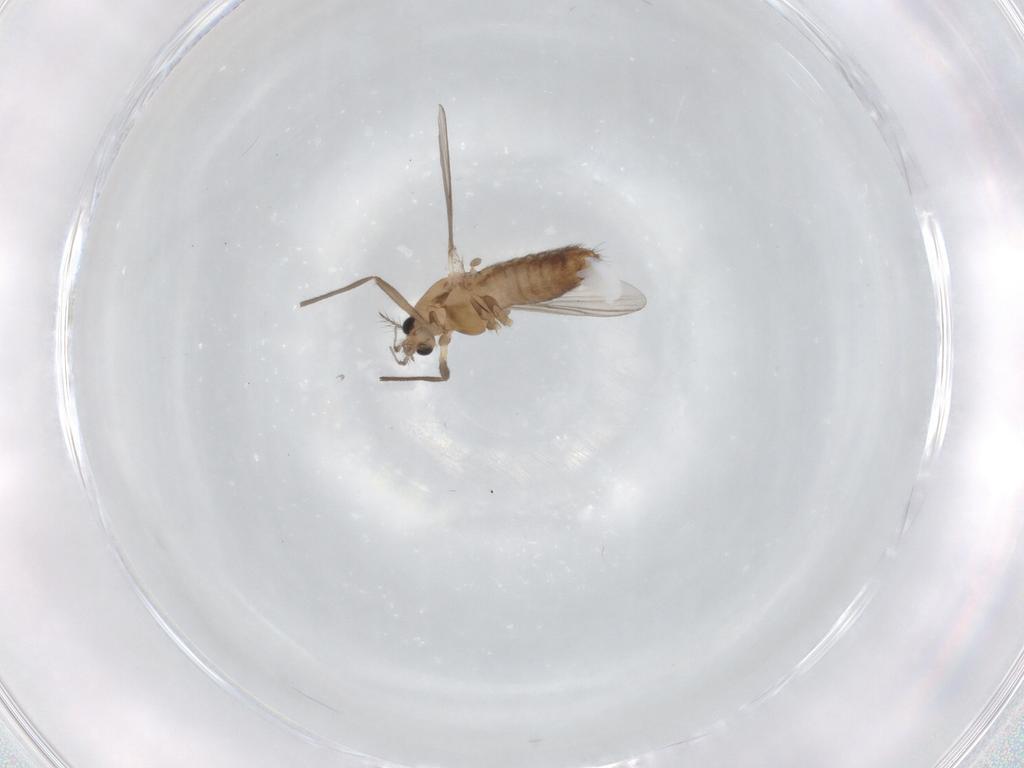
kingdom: Animalia
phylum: Arthropoda
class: Insecta
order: Diptera
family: Chironomidae
